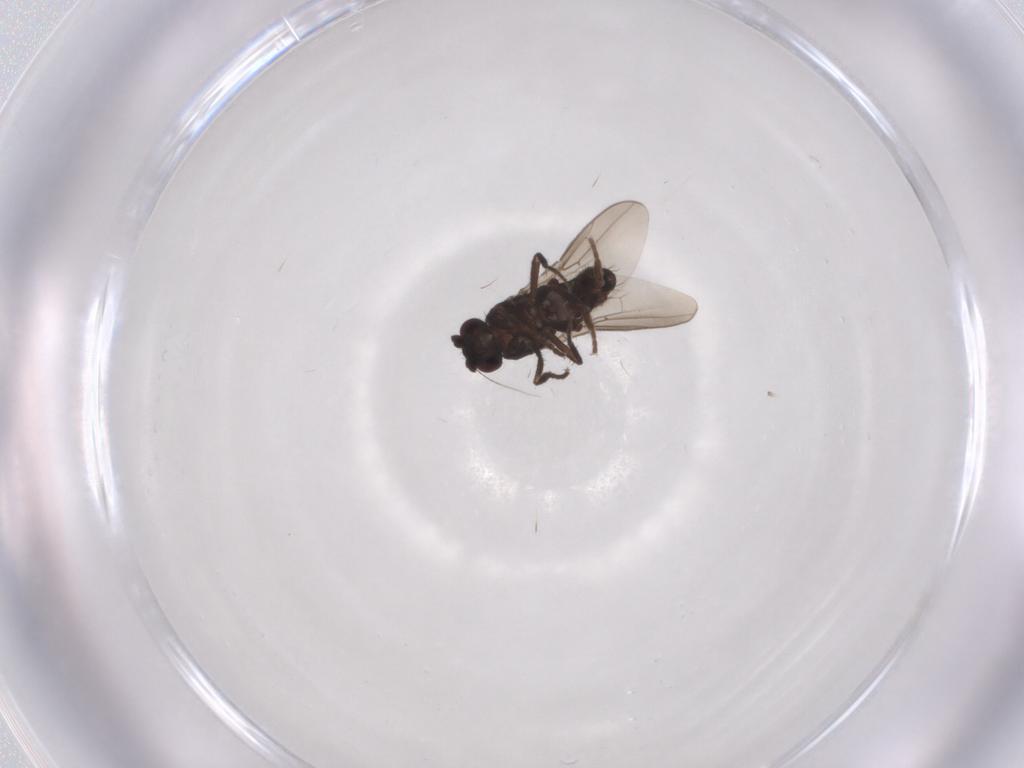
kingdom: Animalia
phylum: Arthropoda
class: Insecta
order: Diptera
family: Sphaeroceridae
